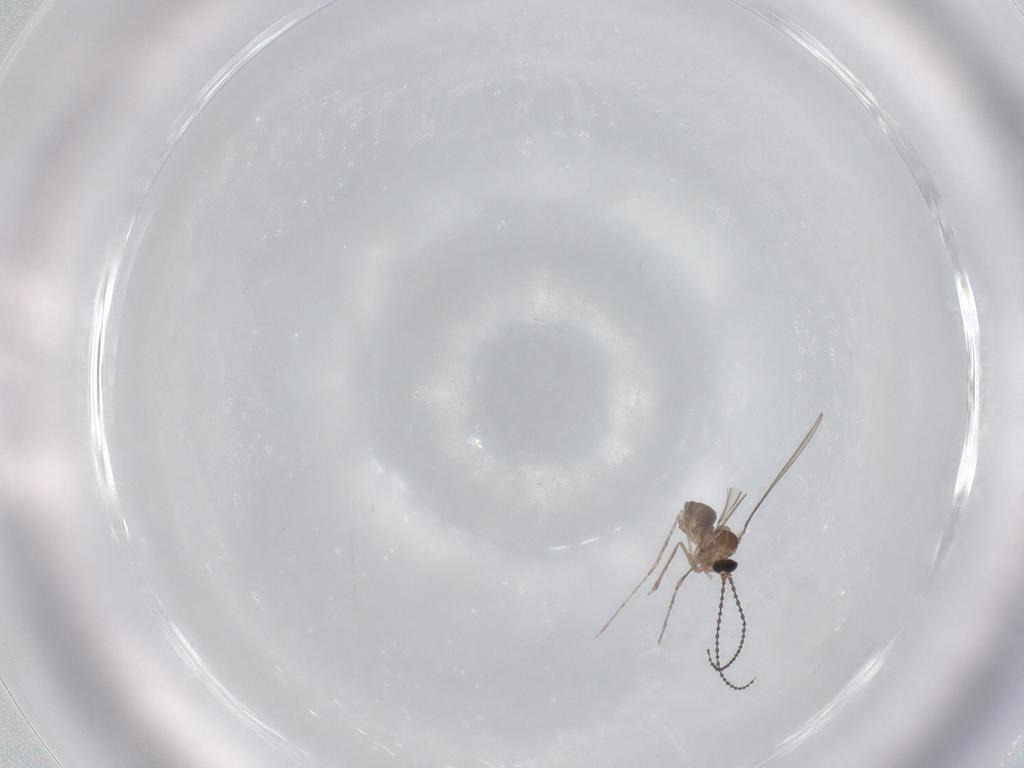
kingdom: Animalia
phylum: Arthropoda
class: Insecta
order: Diptera
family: Cecidomyiidae
